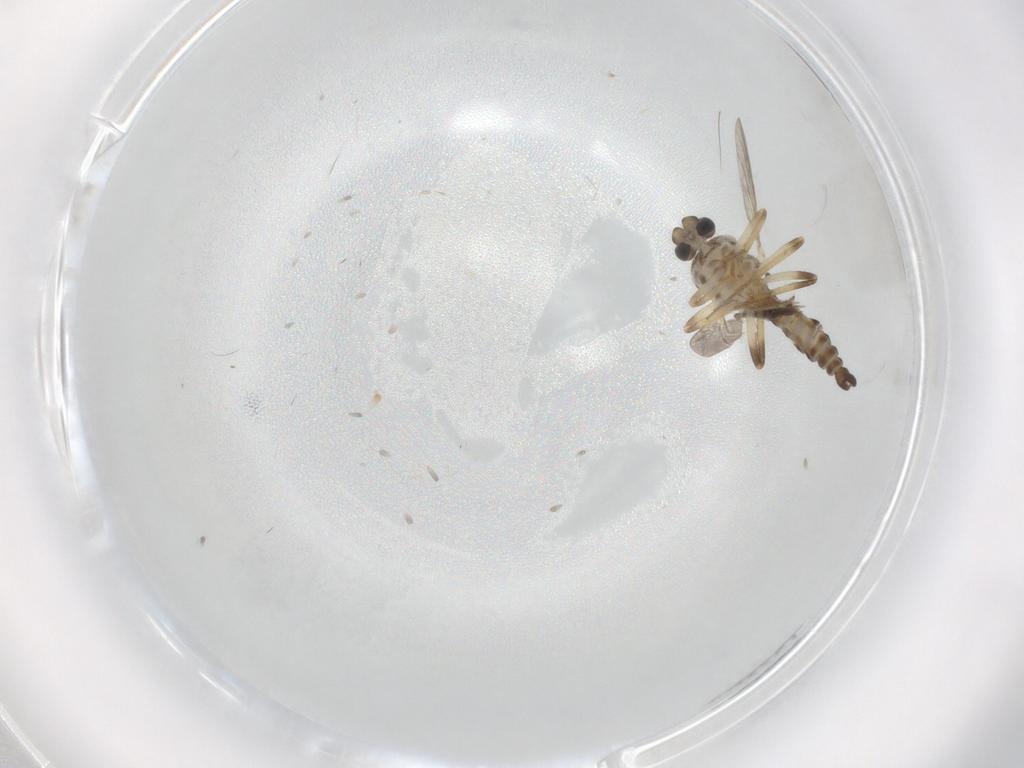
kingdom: Animalia
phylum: Arthropoda
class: Insecta
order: Diptera
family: Ceratopogonidae
